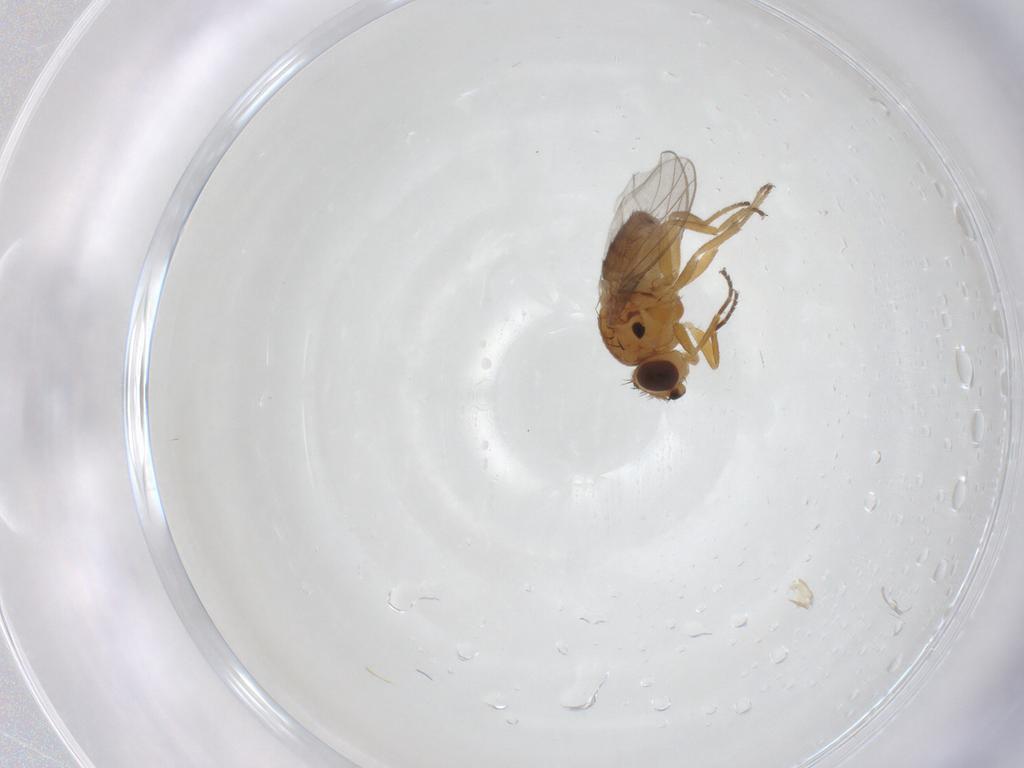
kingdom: Animalia
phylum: Arthropoda
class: Insecta
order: Diptera
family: Chloropidae
